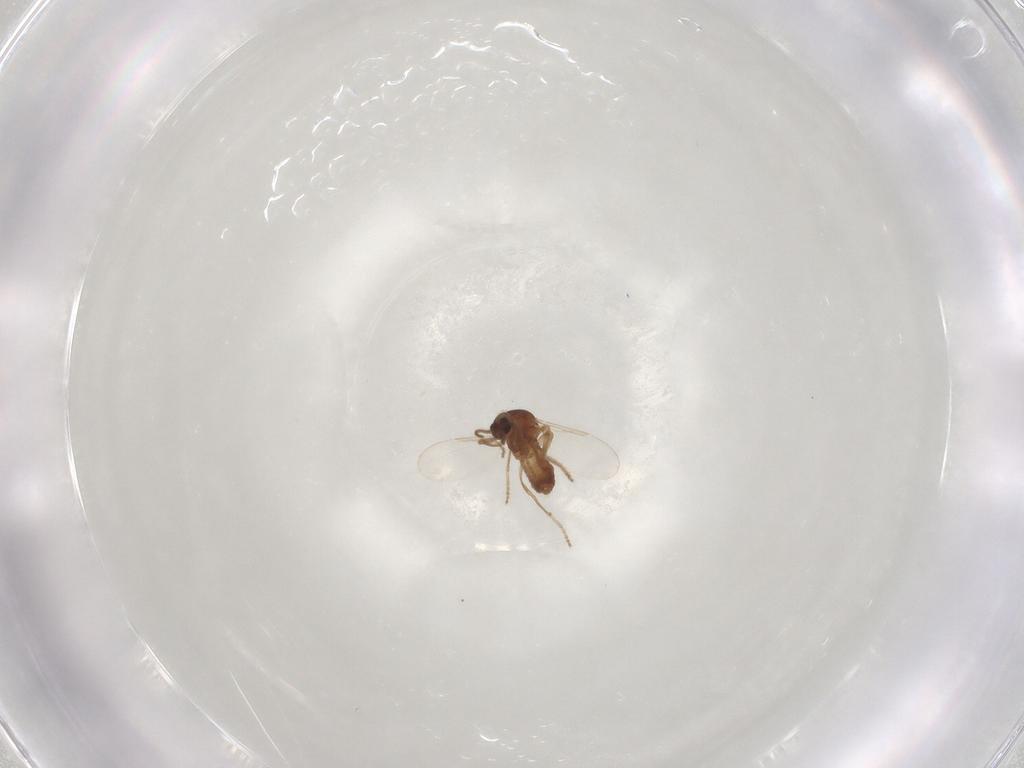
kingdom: Animalia
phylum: Arthropoda
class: Insecta
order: Diptera
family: Ceratopogonidae
